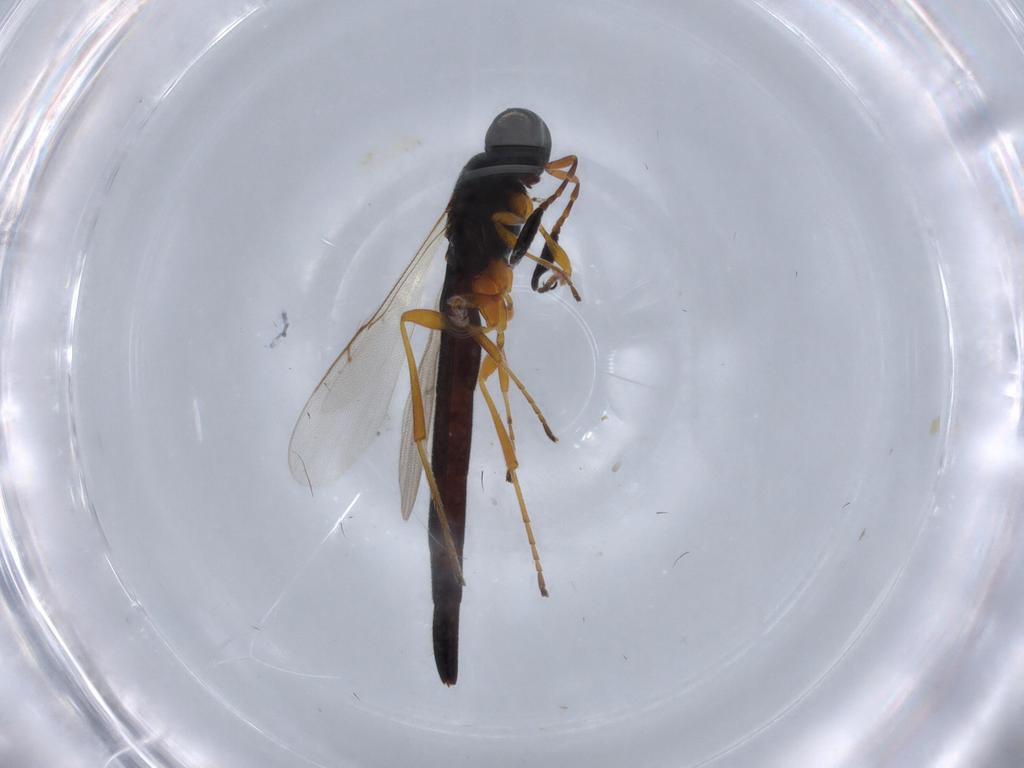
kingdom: Animalia
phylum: Arthropoda
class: Insecta
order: Hymenoptera
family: Scelionidae
